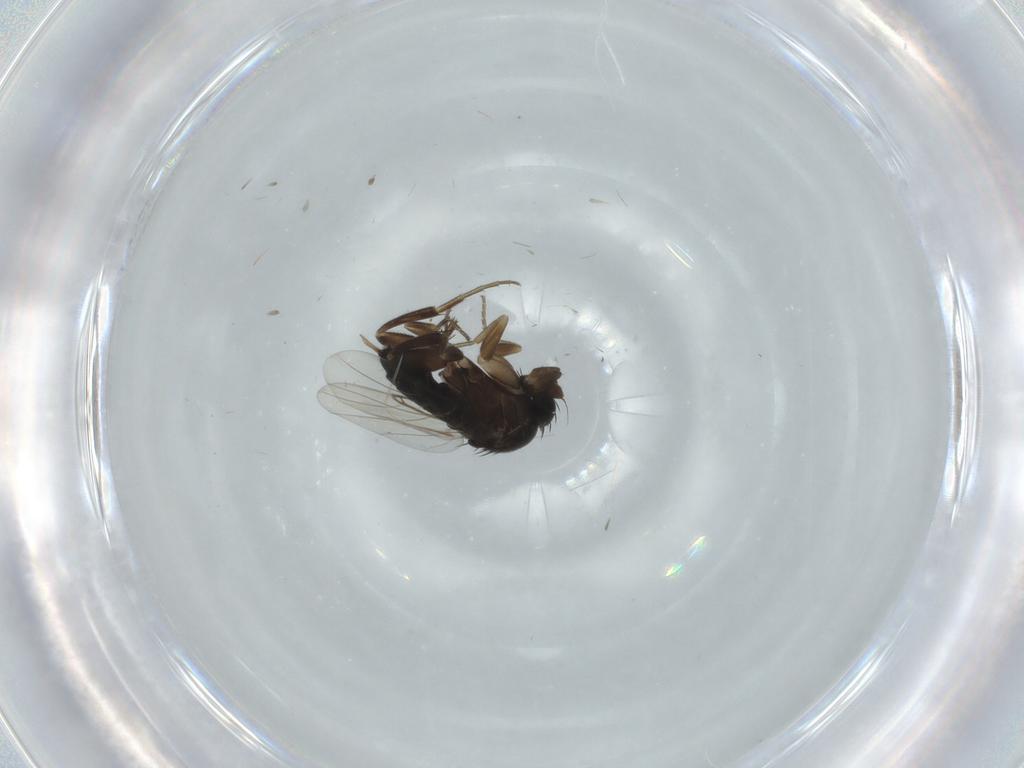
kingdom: Animalia
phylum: Arthropoda
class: Insecta
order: Diptera
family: Phoridae
